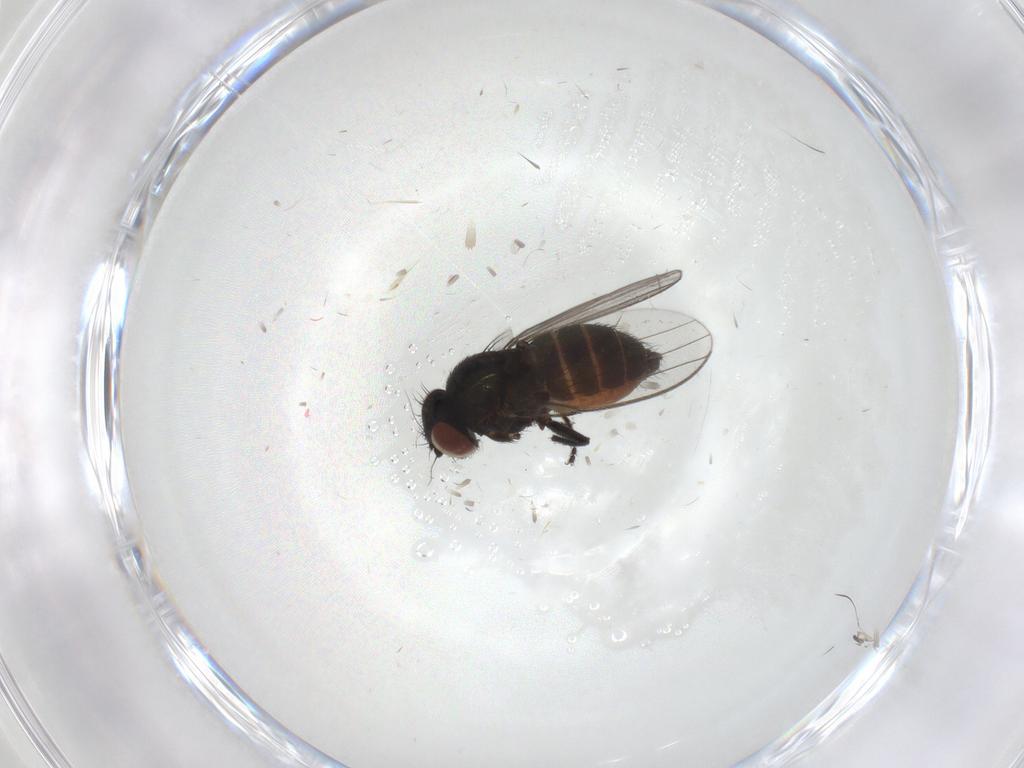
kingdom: Animalia
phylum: Arthropoda
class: Insecta
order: Diptera
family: Milichiidae
